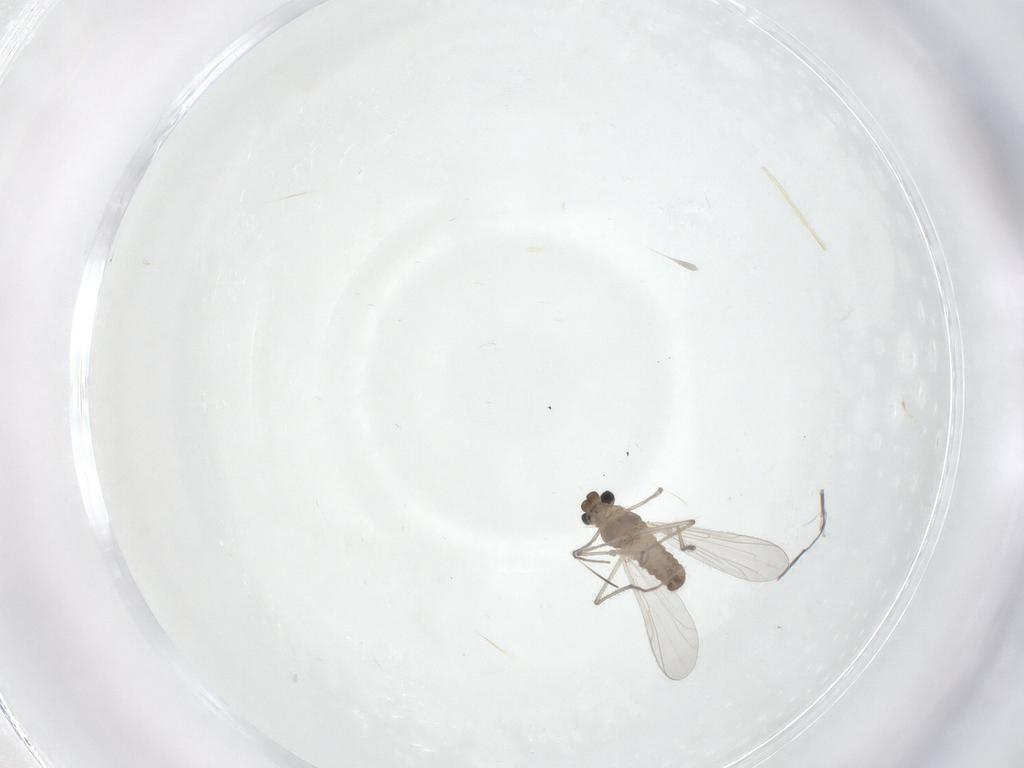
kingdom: Animalia
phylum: Arthropoda
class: Insecta
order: Diptera
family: Chironomidae
